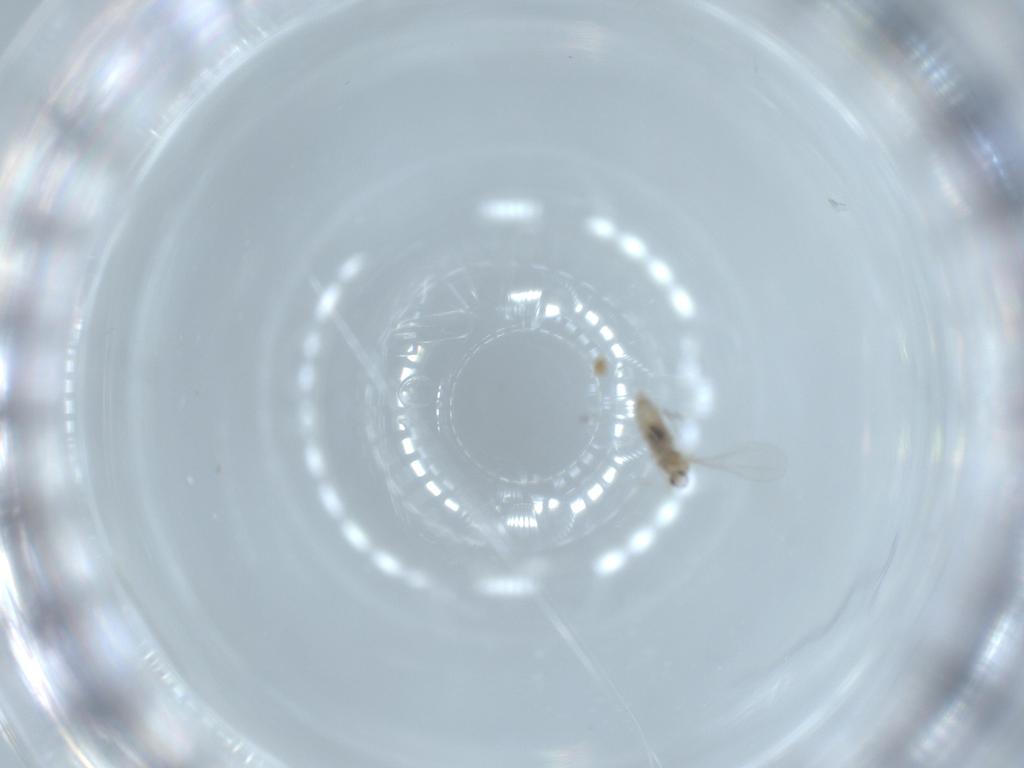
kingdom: Animalia
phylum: Arthropoda
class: Insecta
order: Diptera
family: Cecidomyiidae
